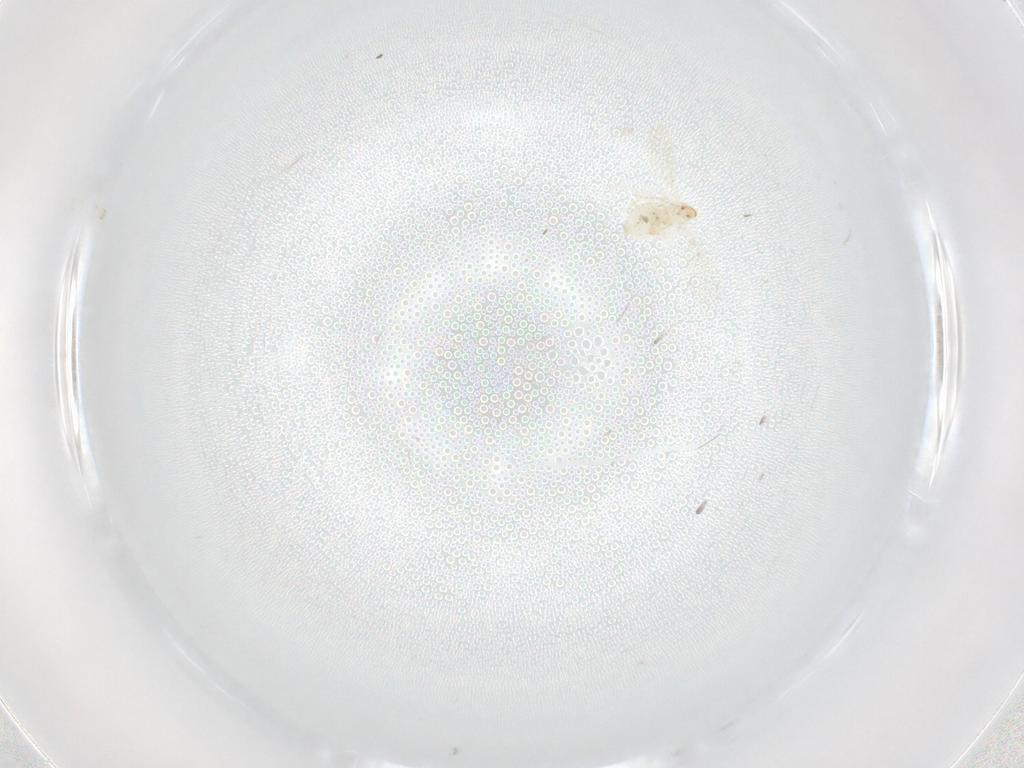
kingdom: Animalia
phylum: Arthropoda
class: Insecta
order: Diptera
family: Cecidomyiidae
